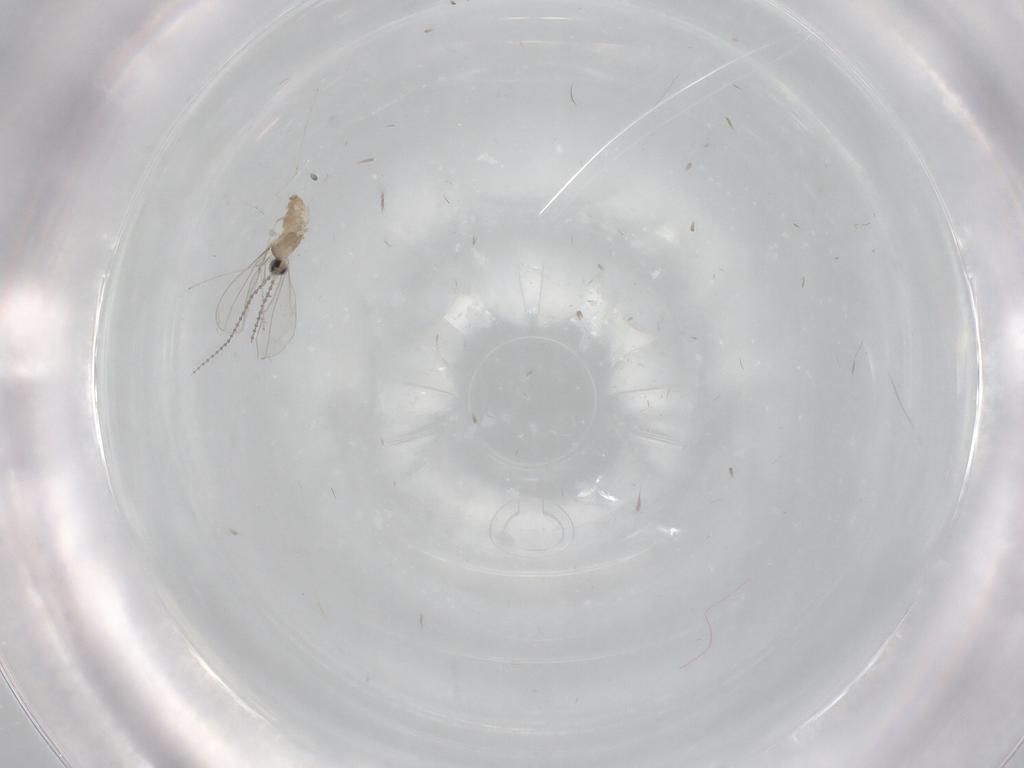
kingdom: Animalia
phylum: Arthropoda
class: Insecta
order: Diptera
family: Cecidomyiidae
